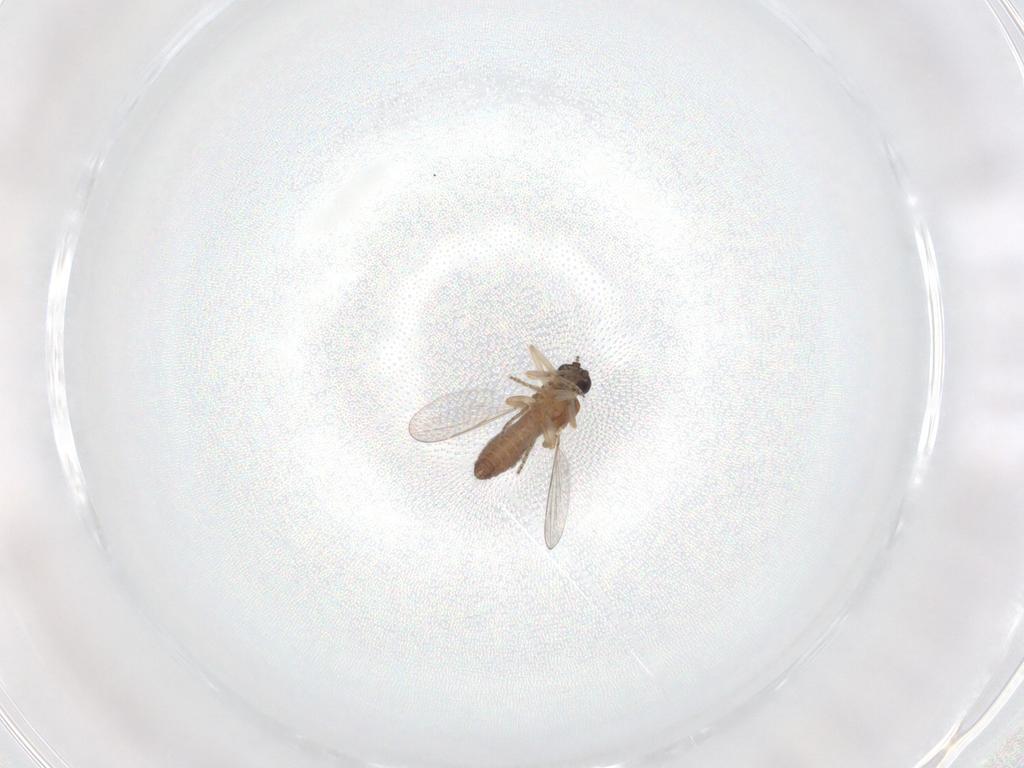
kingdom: Animalia
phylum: Arthropoda
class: Insecta
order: Diptera
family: Ceratopogonidae
